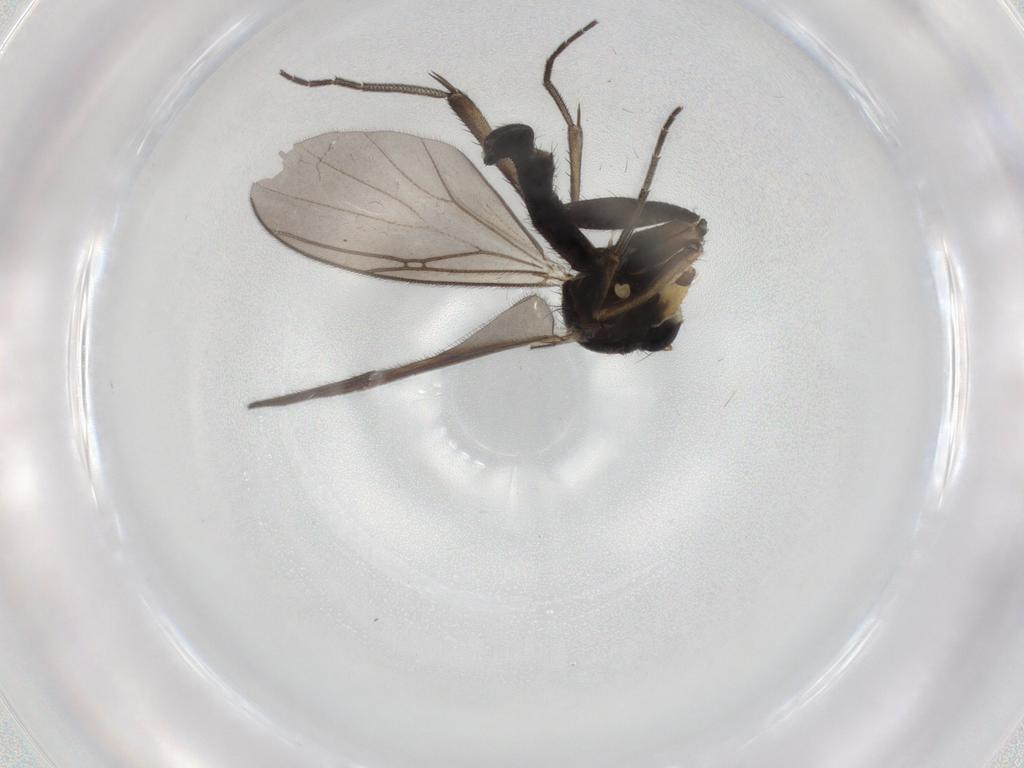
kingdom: Animalia
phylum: Arthropoda
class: Insecta
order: Diptera
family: Mycetophilidae
